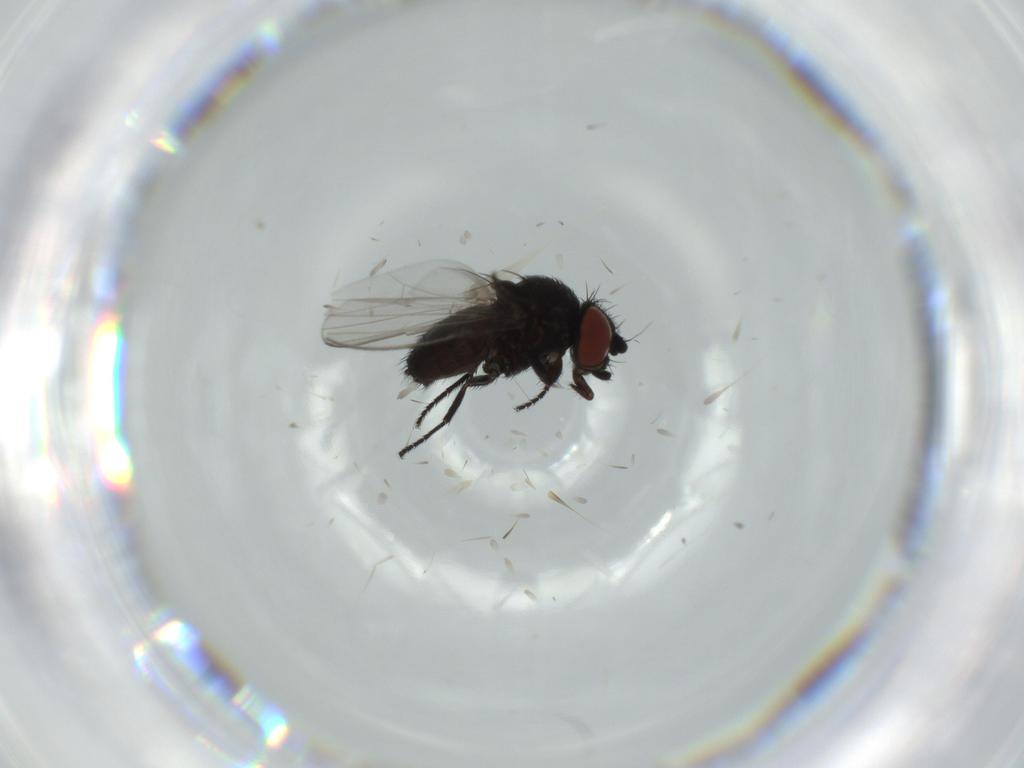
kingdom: Animalia
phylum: Arthropoda
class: Insecta
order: Diptera
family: Milichiidae
